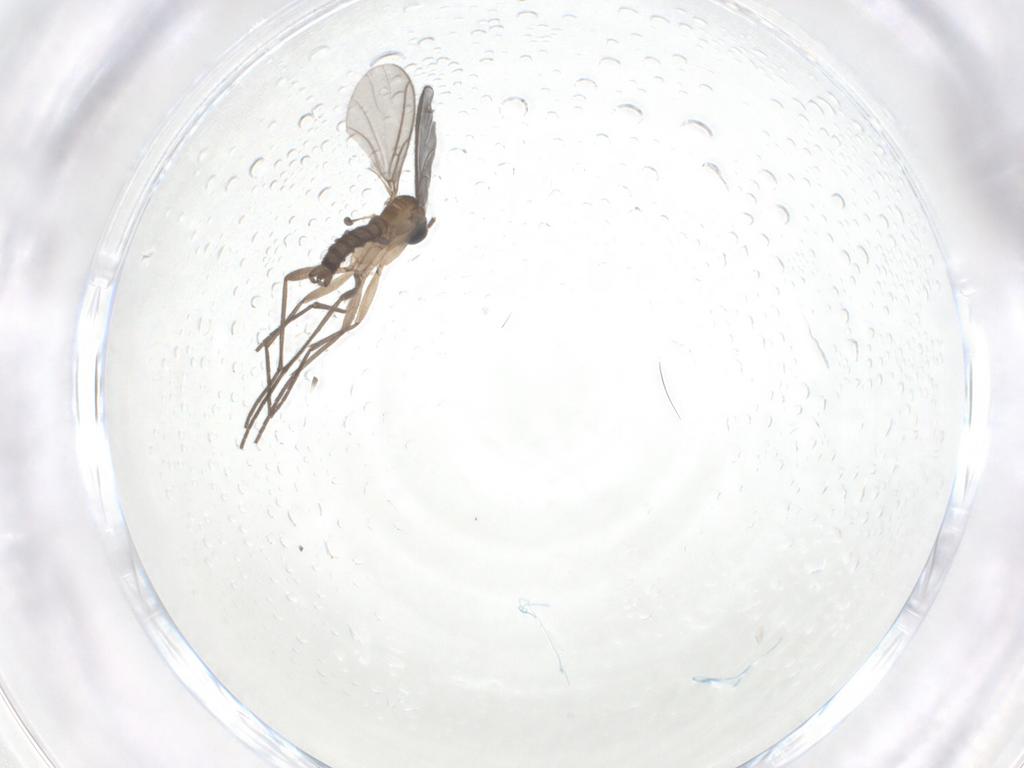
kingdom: Animalia
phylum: Arthropoda
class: Insecta
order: Diptera
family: Sciaridae
